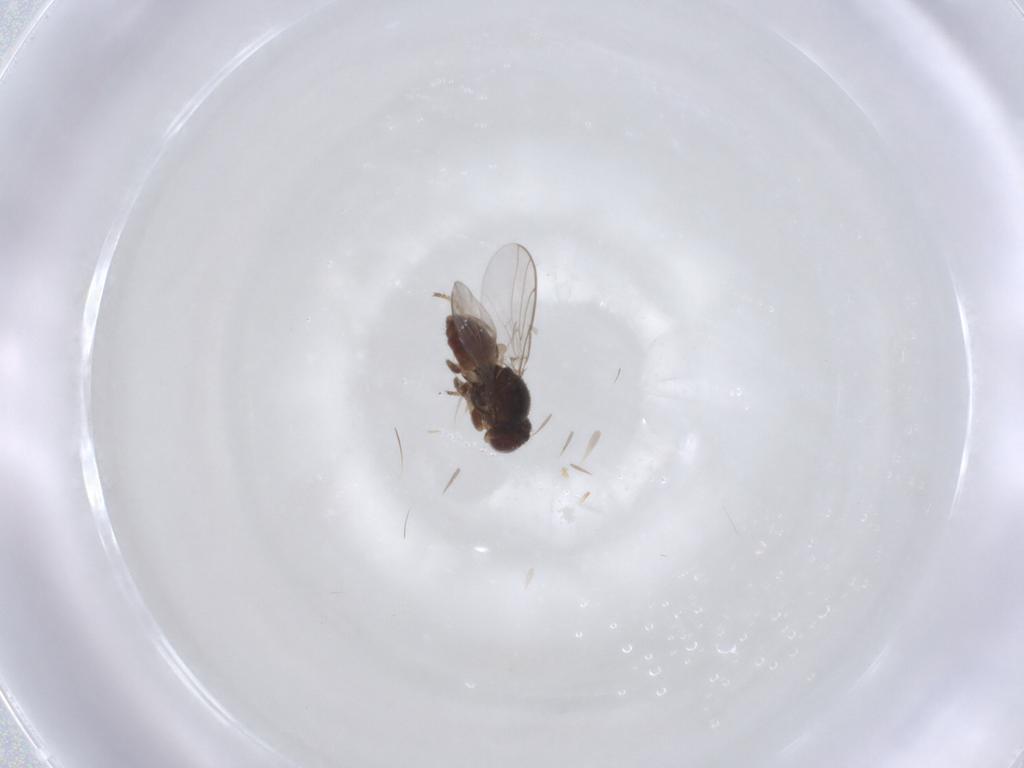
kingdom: Animalia
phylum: Arthropoda
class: Insecta
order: Diptera
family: Chloropidae
